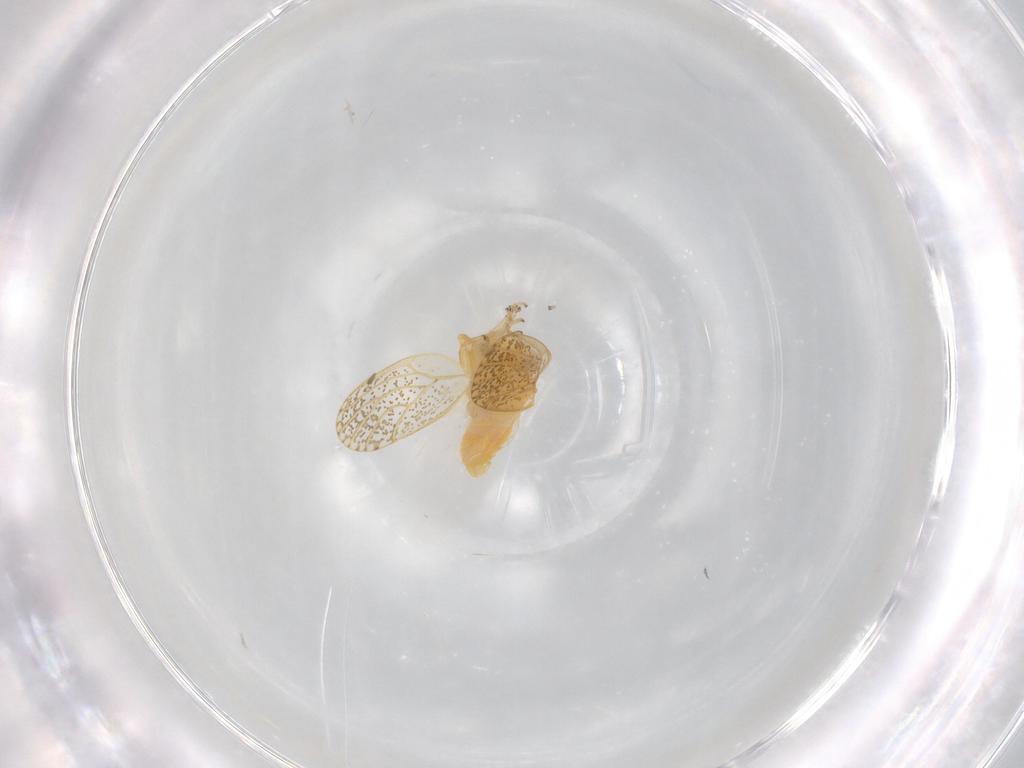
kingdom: Animalia
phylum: Arthropoda
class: Insecta
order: Hemiptera
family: Psyllidae
